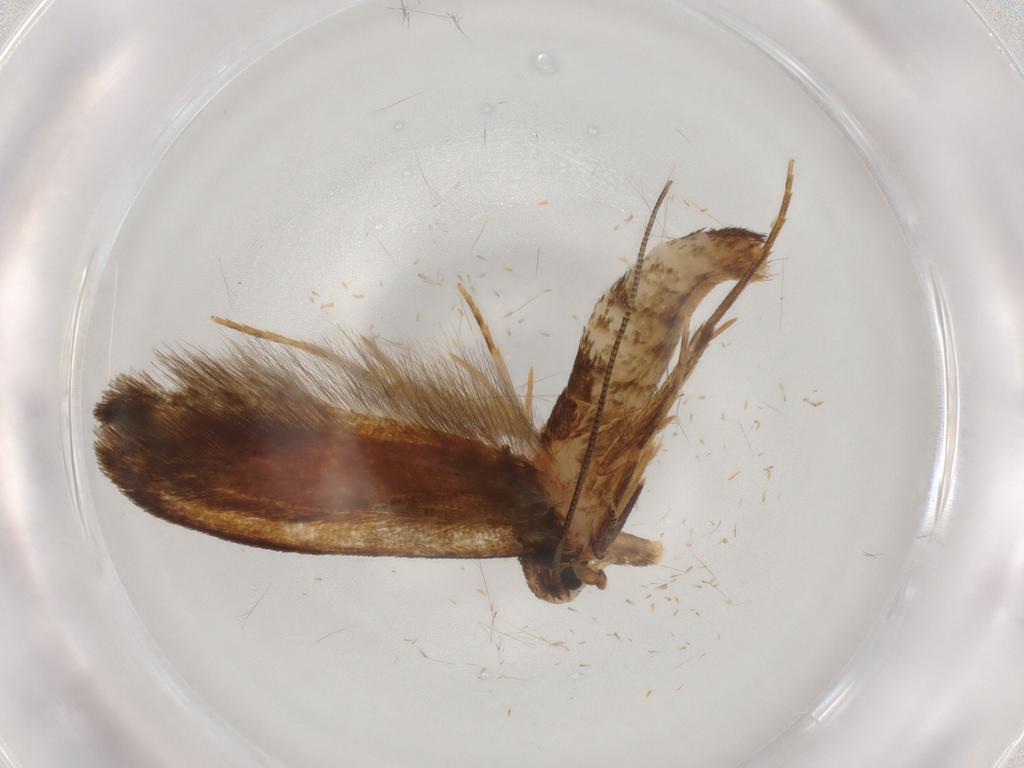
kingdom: Animalia
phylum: Arthropoda
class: Insecta
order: Lepidoptera
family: Tineidae
